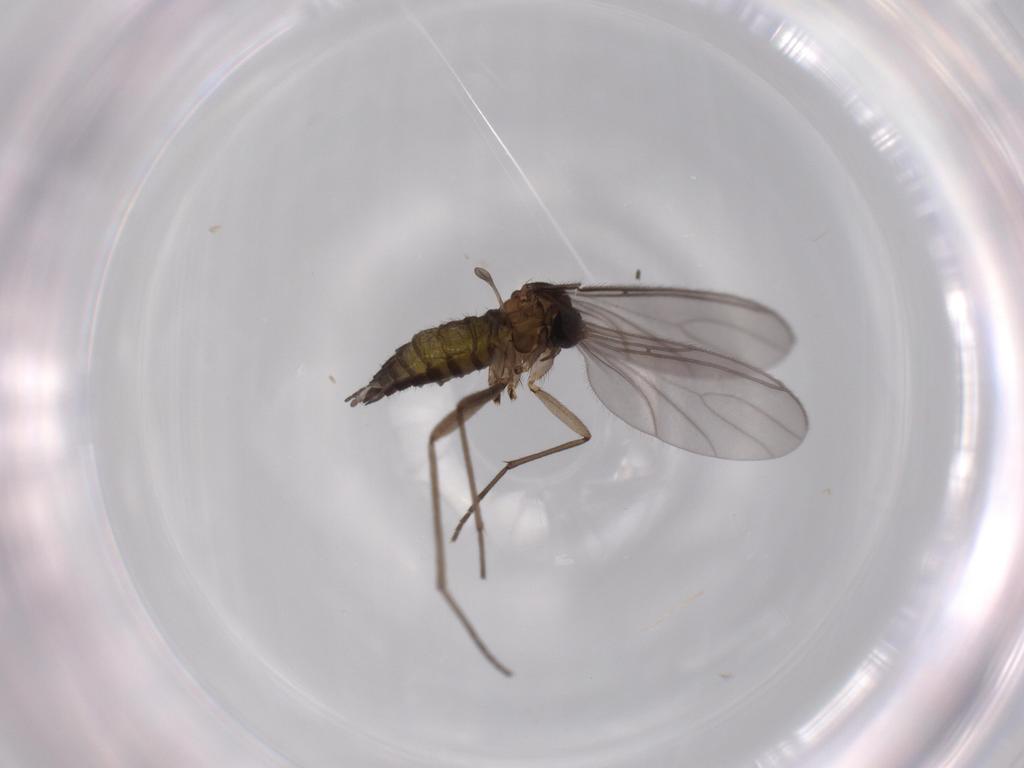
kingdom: Animalia
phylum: Arthropoda
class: Insecta
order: Diptera
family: Sciaridae
